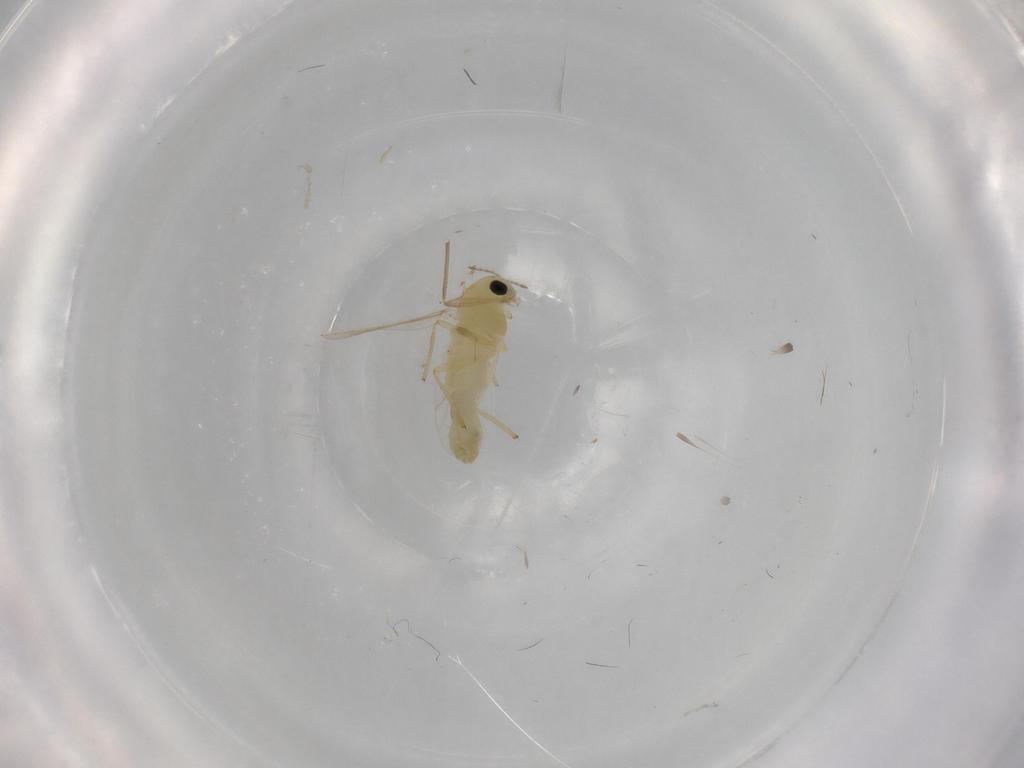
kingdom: Animalia
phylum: Arthropoda
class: Insecta
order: Diptera
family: Chironomidae
